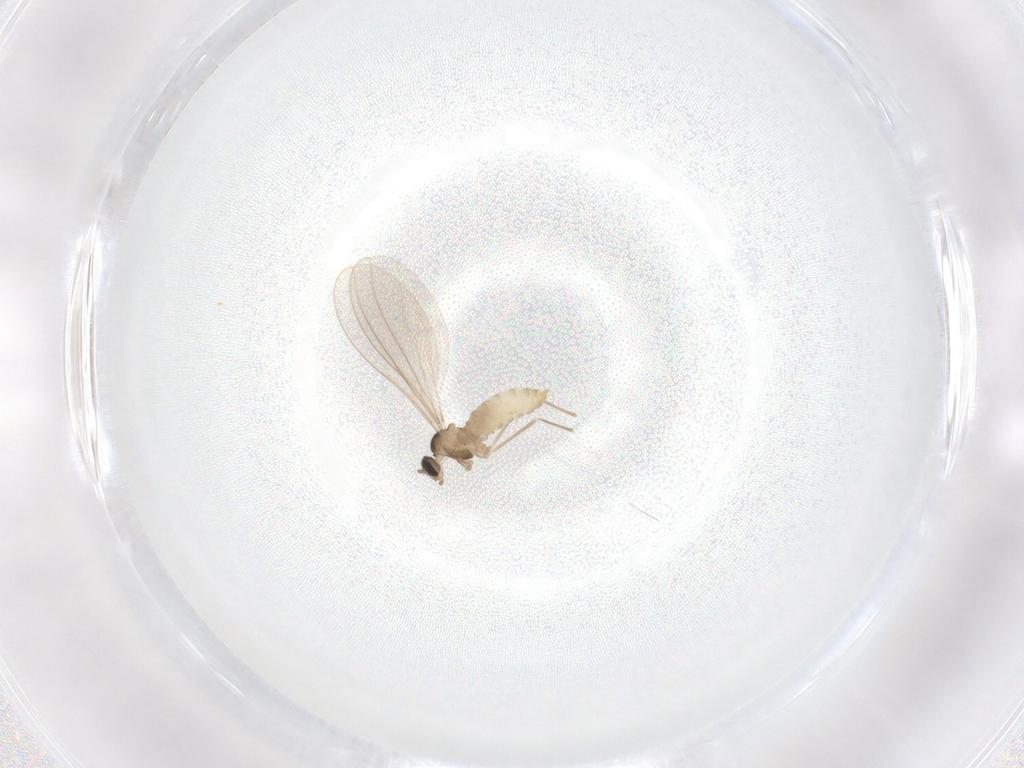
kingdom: Animalia
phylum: Arthropoda
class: Insecta
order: Diptera
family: Cecidomyiidae
